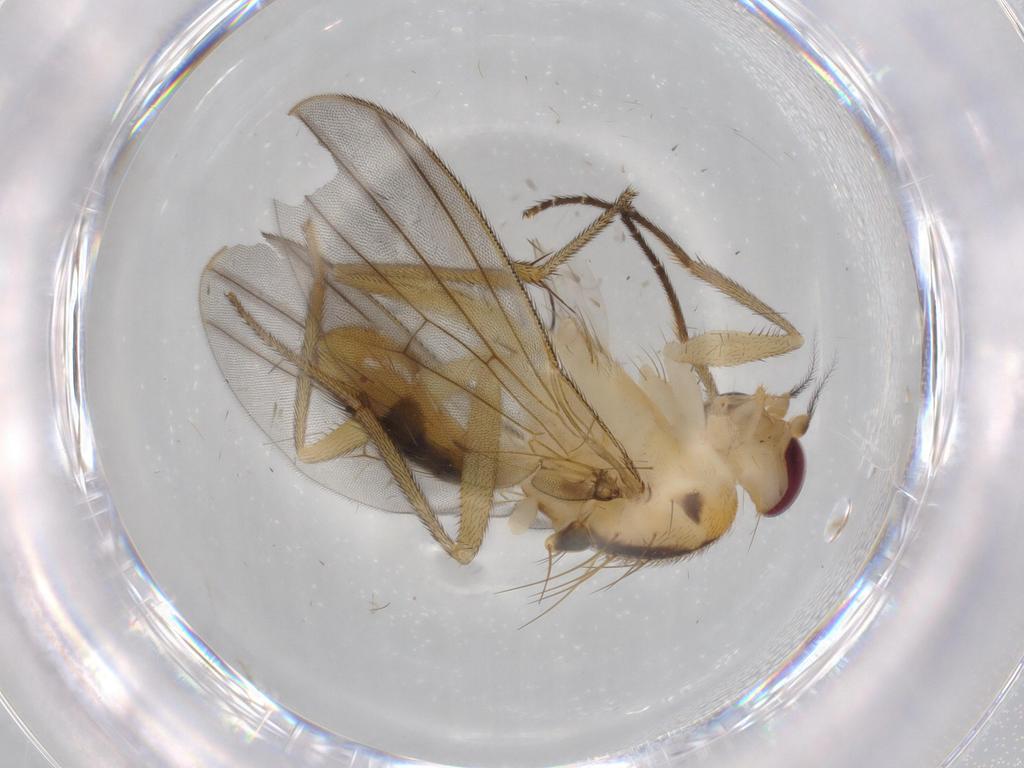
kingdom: Animalia
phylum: Arthropoda
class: Insecta
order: Diptera
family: Clusiidae
